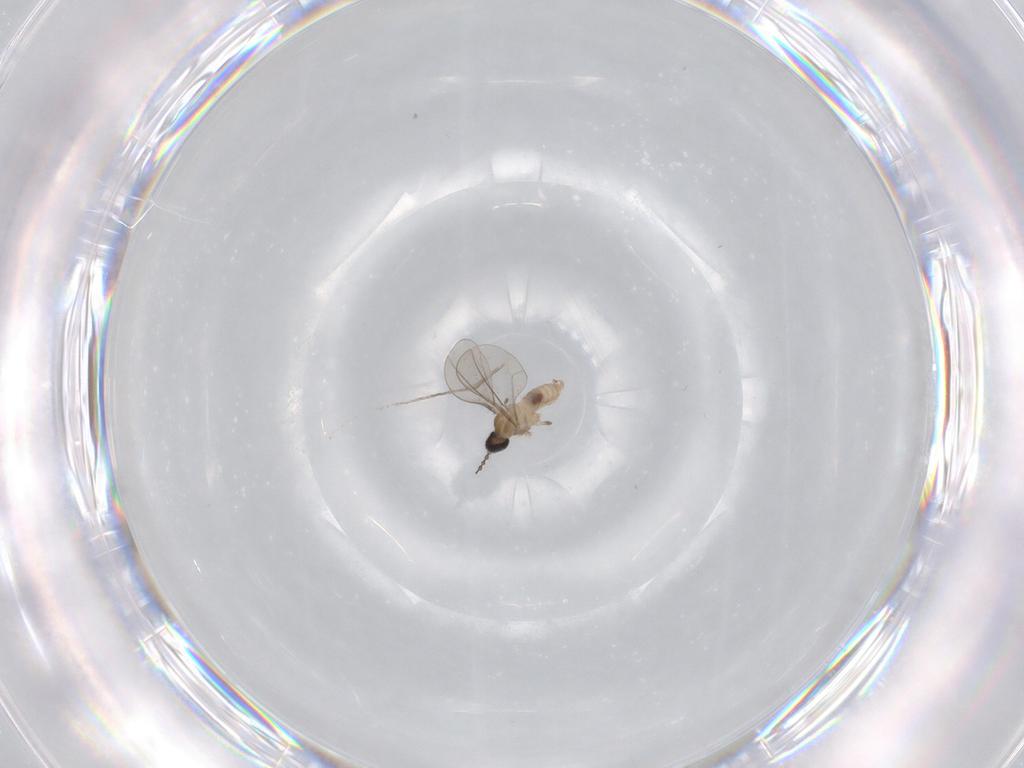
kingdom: Animalia
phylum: Arthropoda
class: Insecta
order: Diptera
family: Cecidomyiidae
